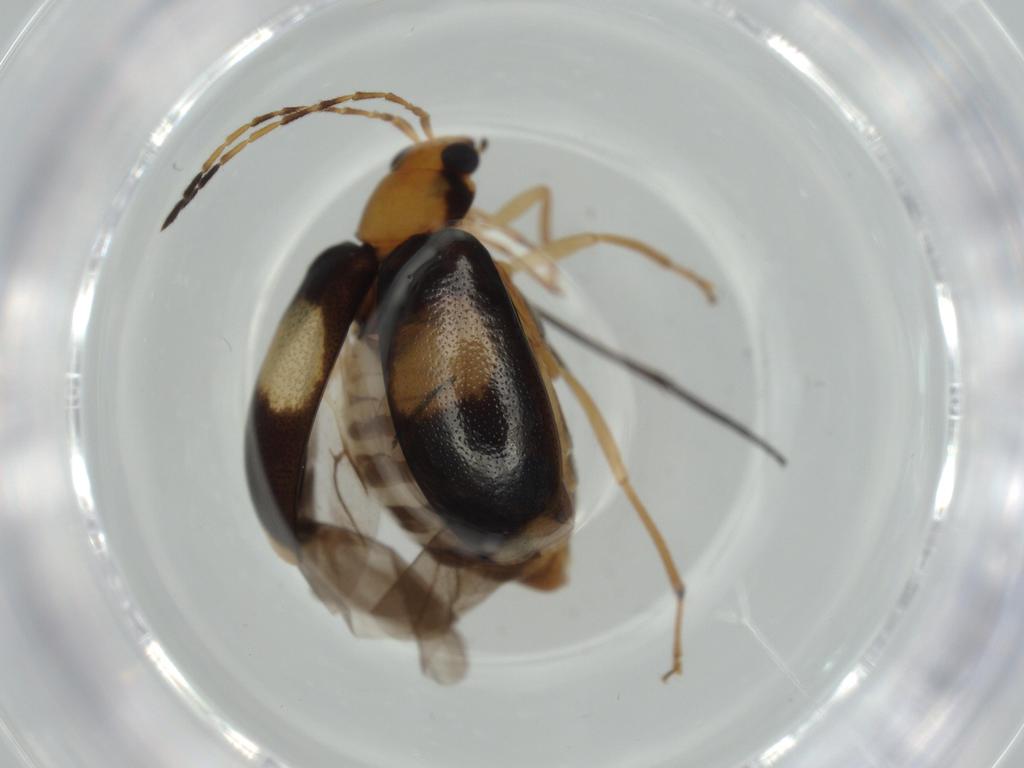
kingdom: Animalia
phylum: Arthropoda
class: Insecta
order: Coleoptera
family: Chrysomelidae
